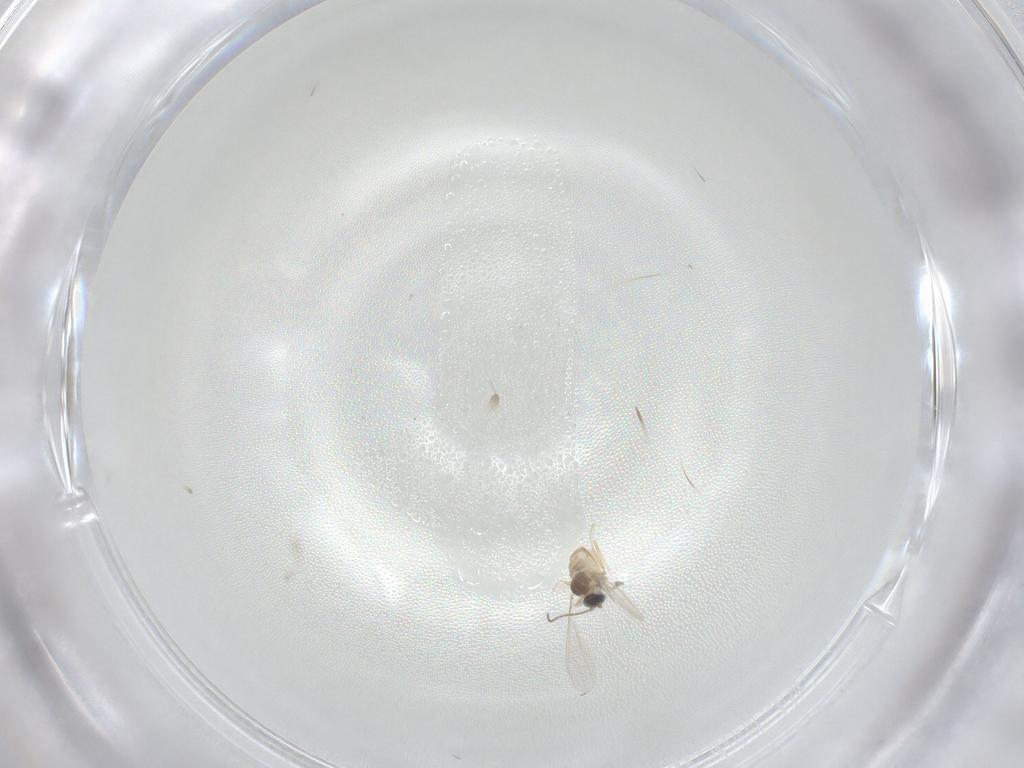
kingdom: Animalia
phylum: Arthropoda
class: Insecta
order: Diptera
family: Cecidomyiidae
